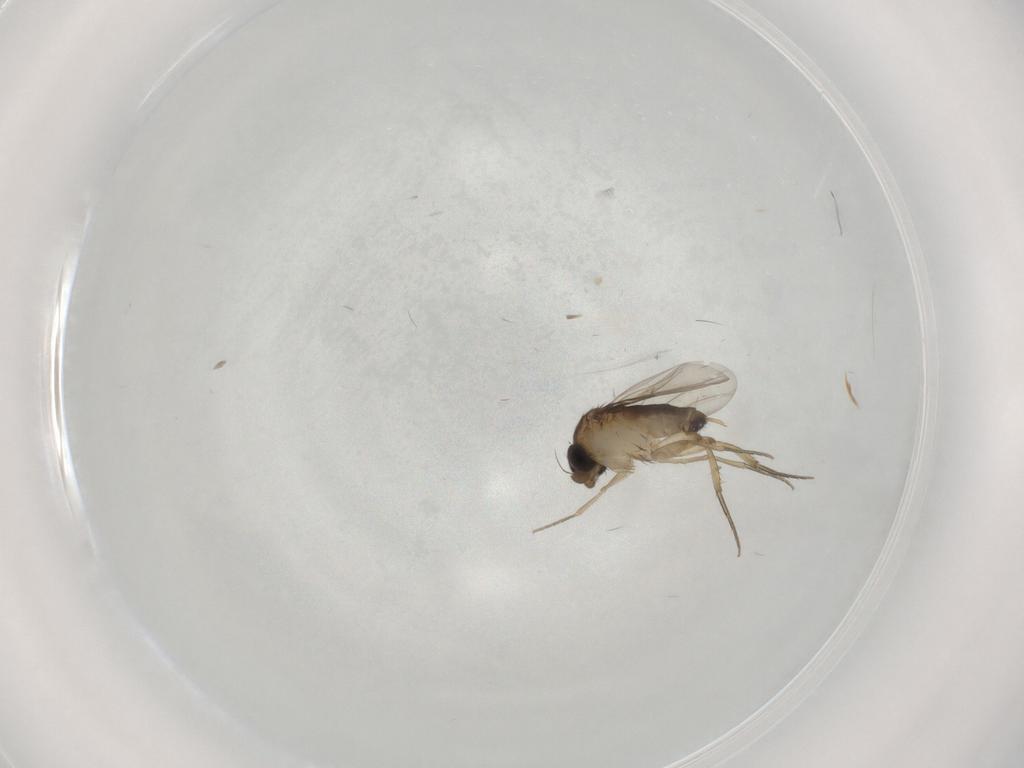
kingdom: Animalia
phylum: Arthropoda
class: Insecta
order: Diptera
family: Phoridae
